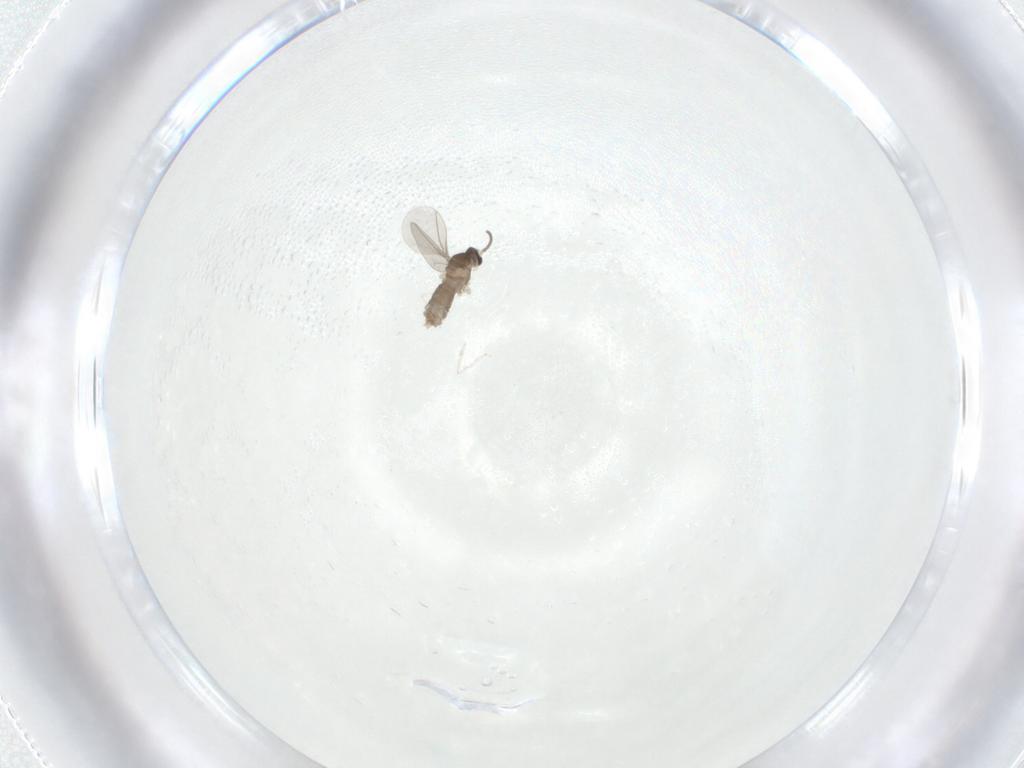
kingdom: Animalia
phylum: Arthropoda
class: Insecta
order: Diptera
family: Cecidomyiidae
